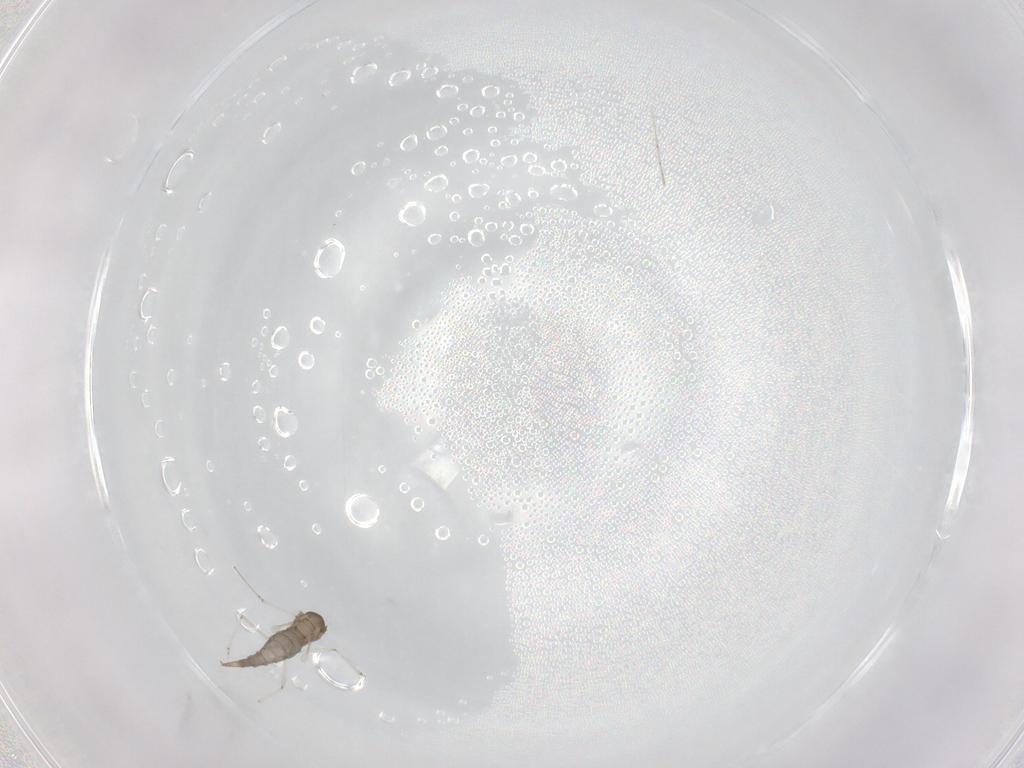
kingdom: Animalia
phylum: Arthropoda
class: Insecta
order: Diptera
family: Cecidomyiidae
